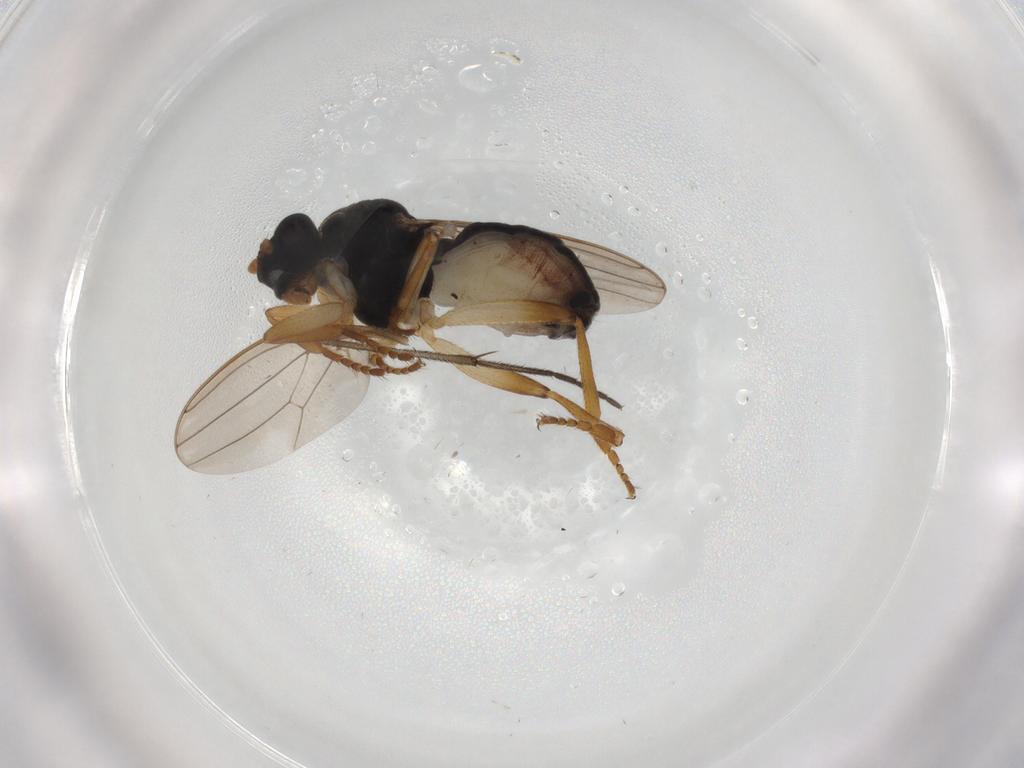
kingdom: Animalia
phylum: Arthropoda
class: Insecta
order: Diptera
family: Sphaeroceridae
